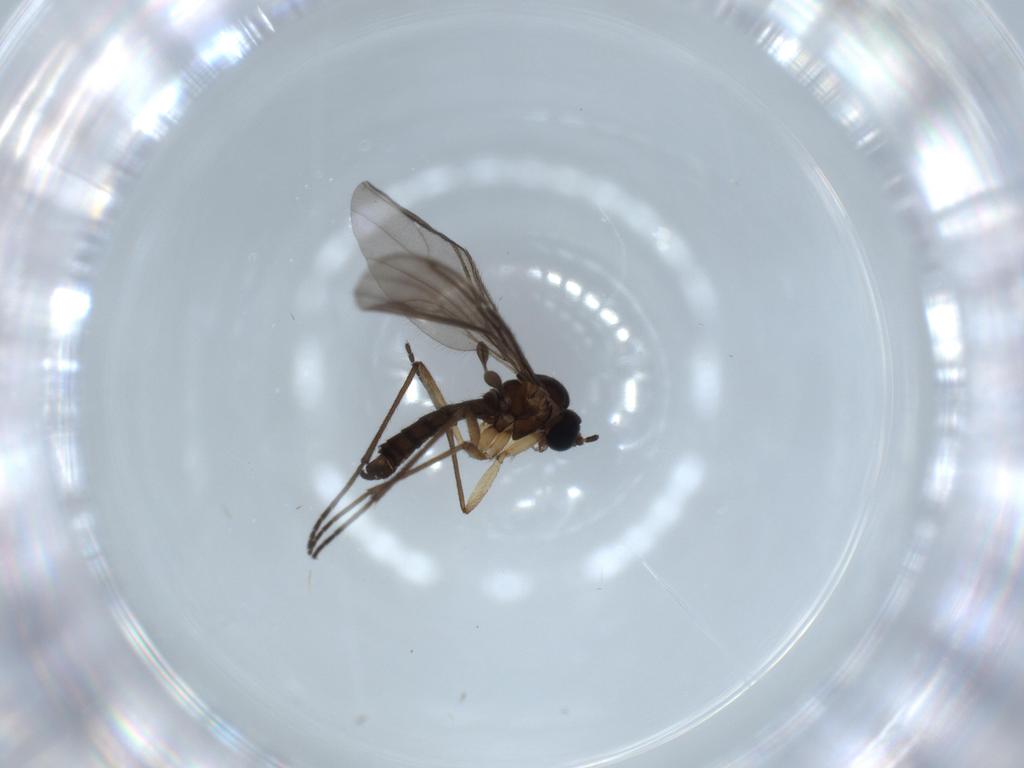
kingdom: Animalia
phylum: Arthropoda
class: Insecta
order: Diptera
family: Sciaridae
